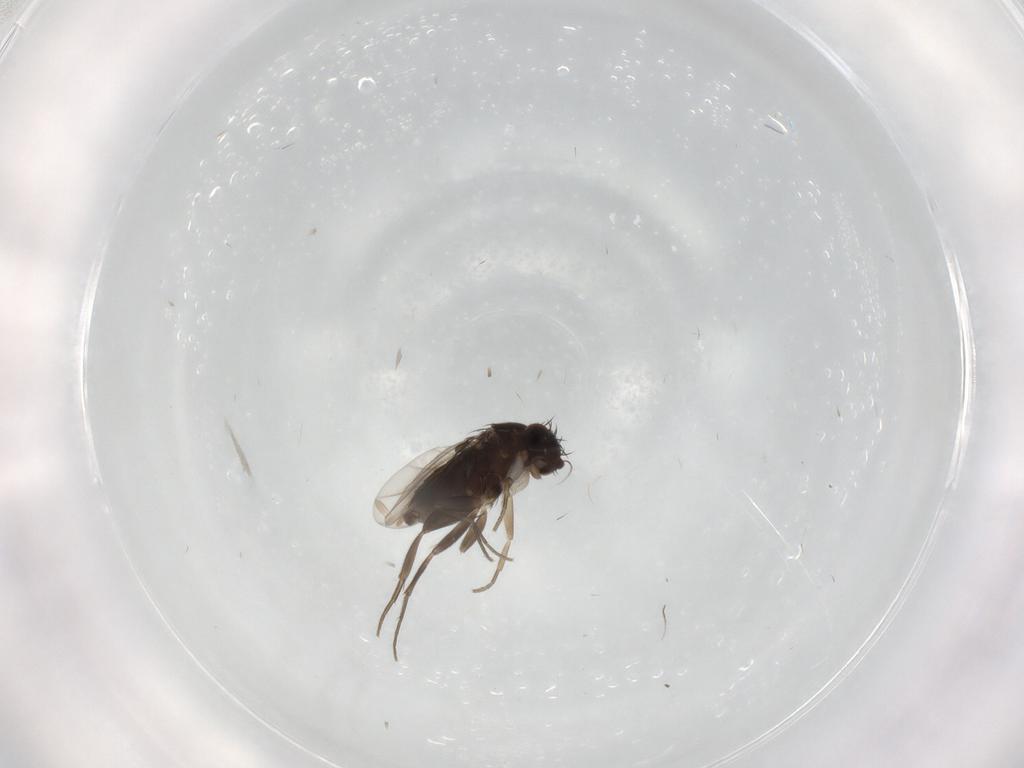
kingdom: Animalia
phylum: Arthropoda
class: Insecta
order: Diptera
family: Phoridae
